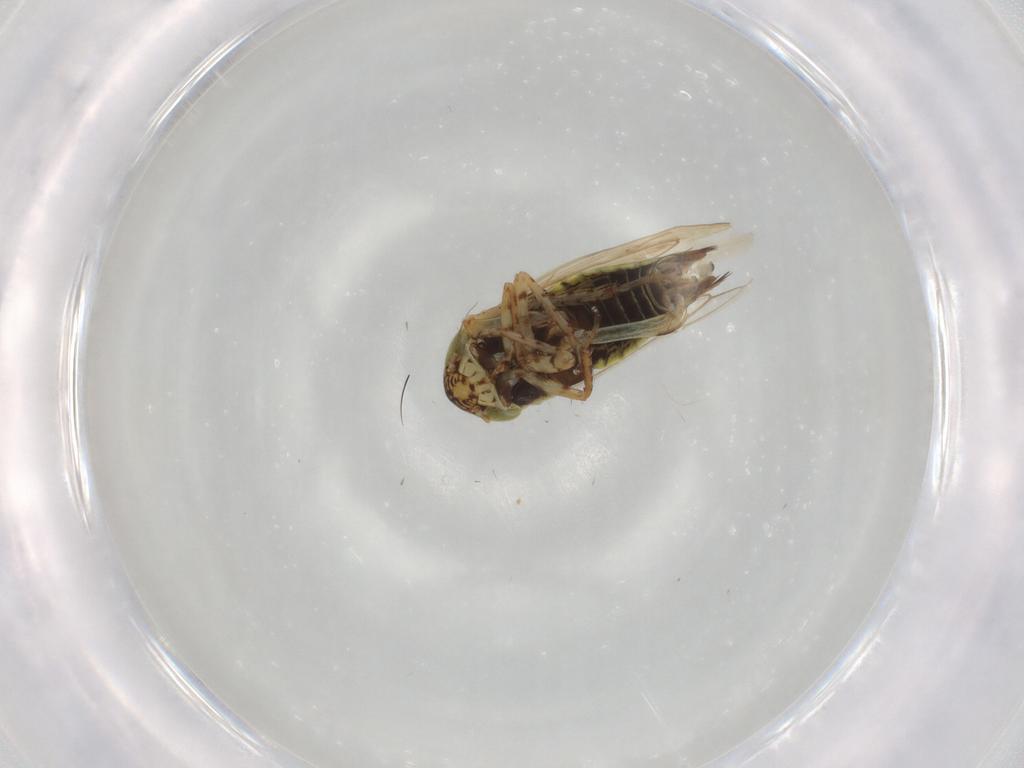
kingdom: Animalia
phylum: Arthropoda
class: Insecta
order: Hemiptera
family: Cicadellidae
